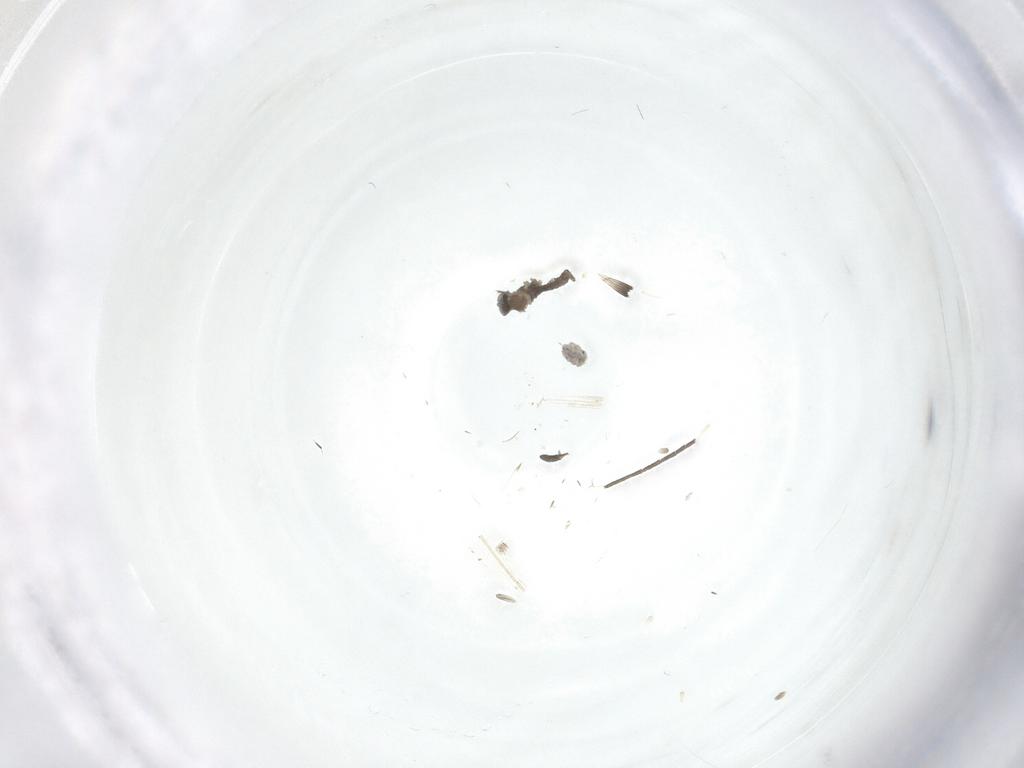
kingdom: Animalia
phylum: Arthropoda
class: Insecta
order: Diptera
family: Sciaridae
